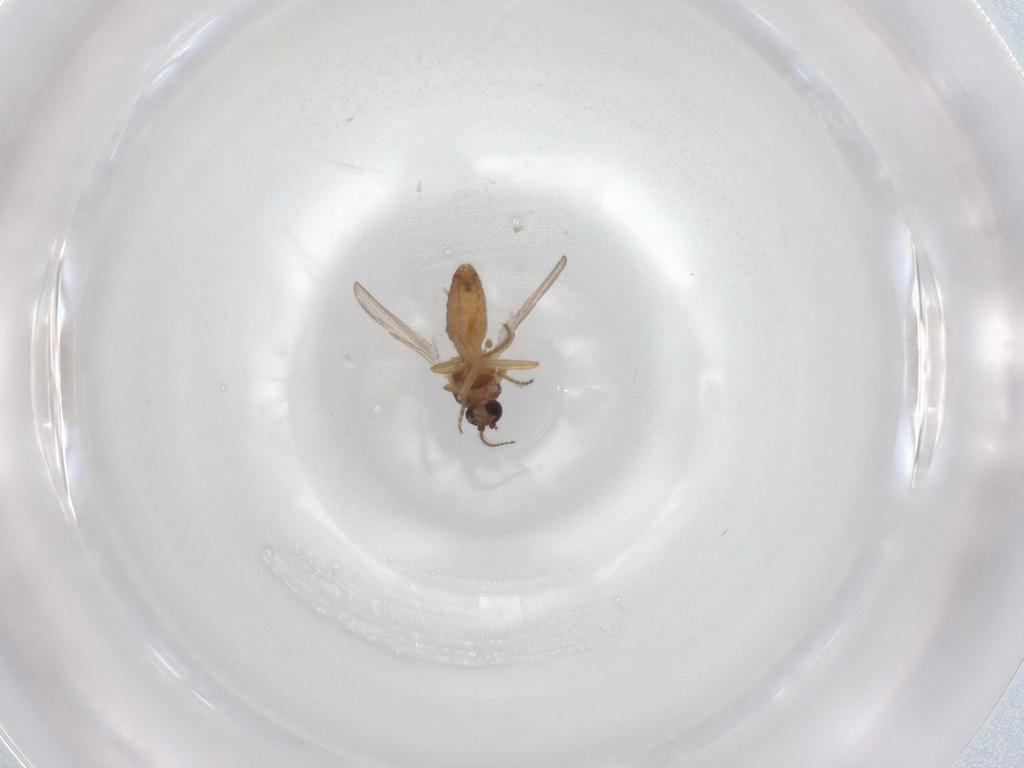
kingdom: Animalia
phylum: Arthropoda
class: Insecta
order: Diptera
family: Ceratopogonidae
